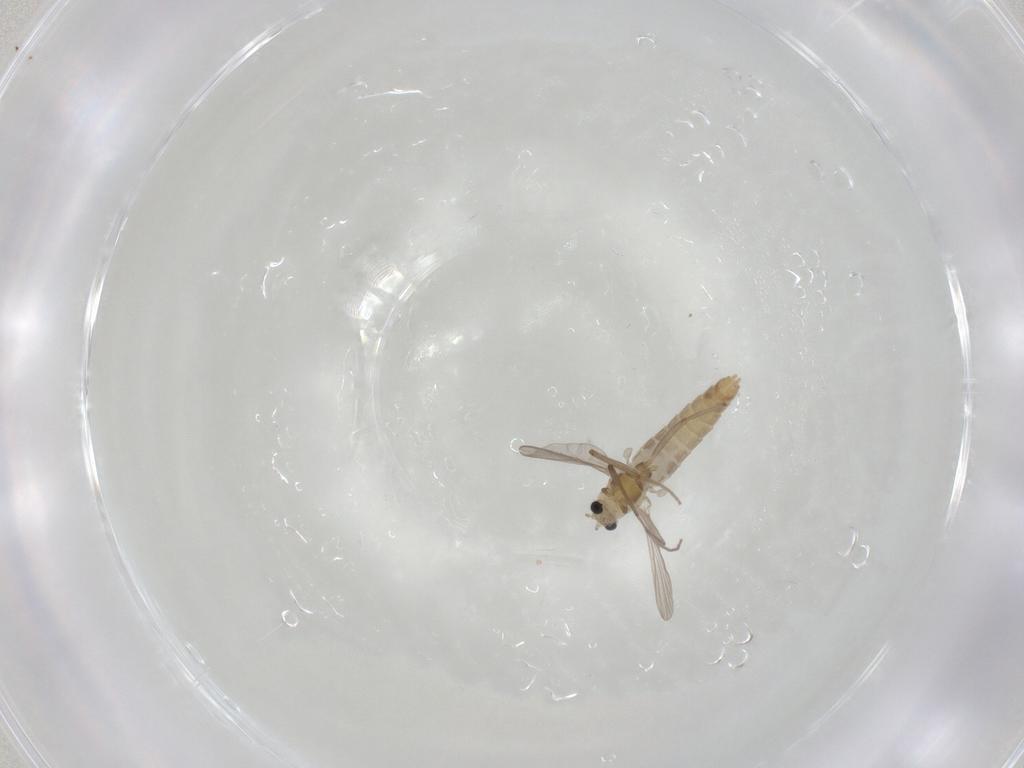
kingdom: Animalia
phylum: Arthropoda
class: Insecta
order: Diptera
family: Chironomidae
